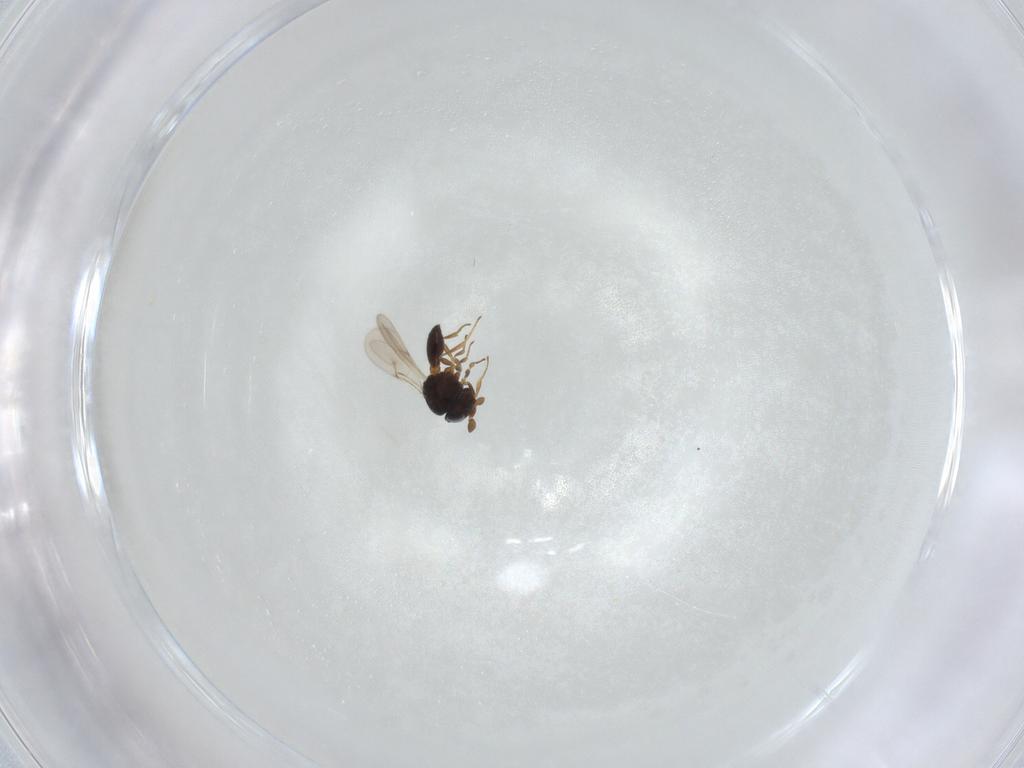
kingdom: Animalia
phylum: Arthropoda
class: Insecta
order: Hymenoptera
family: Scelionidae
